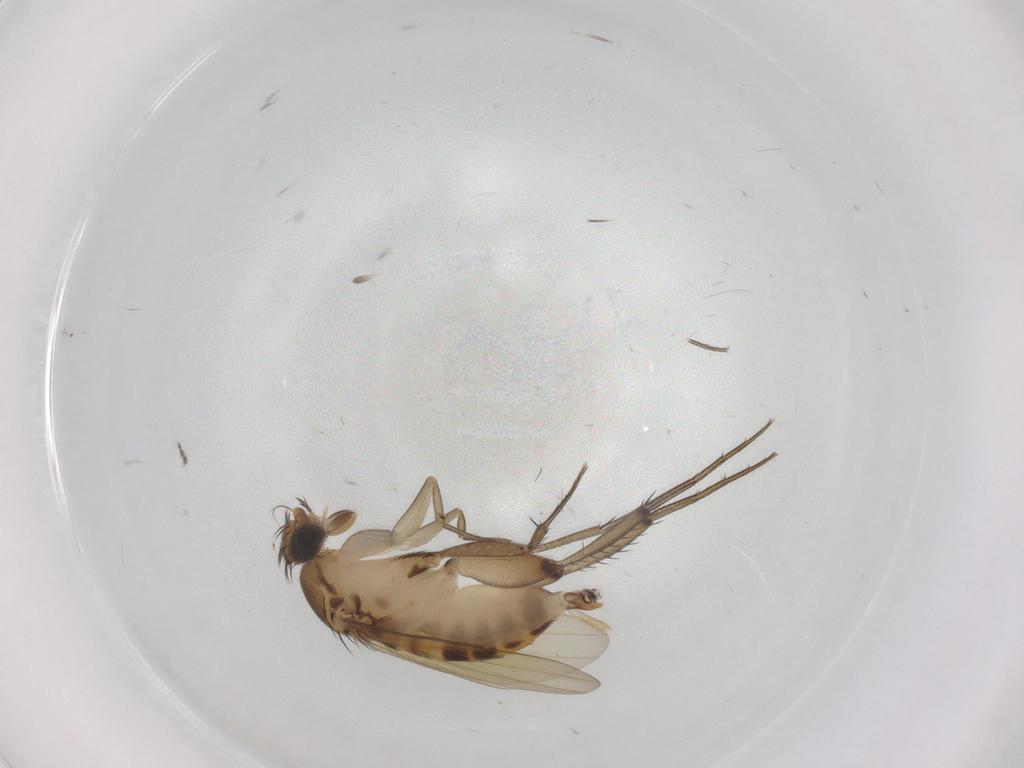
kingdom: Animalia
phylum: Arthropoda
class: Insecta
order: Diptera
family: Phoridae
